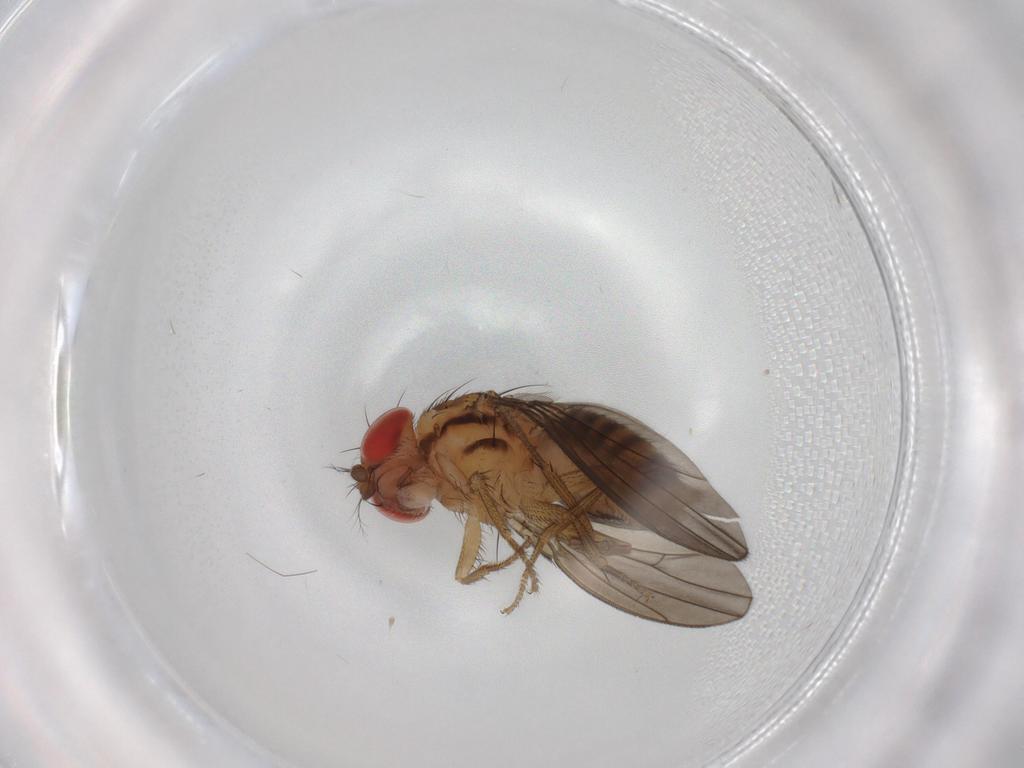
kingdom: Animalia
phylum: Arthropoda
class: Insecta
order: Diptera
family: Drosophilidae
